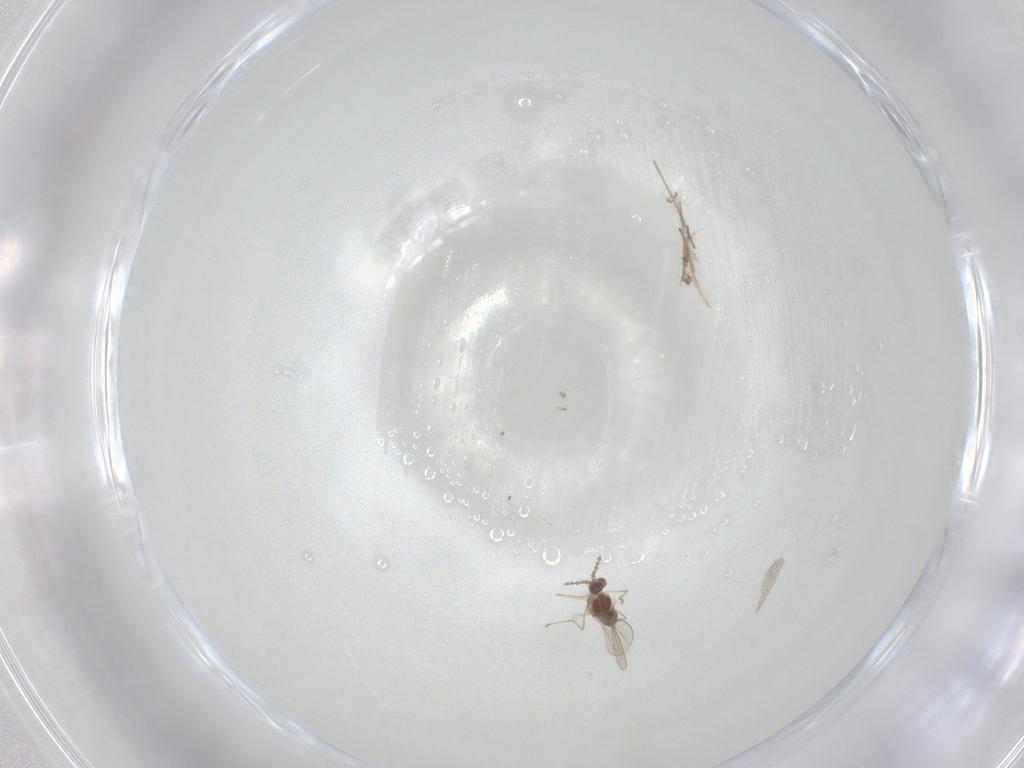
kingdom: Animalia
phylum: Arthropoda
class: Insecta
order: Diptera
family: Cecidomyiidae
